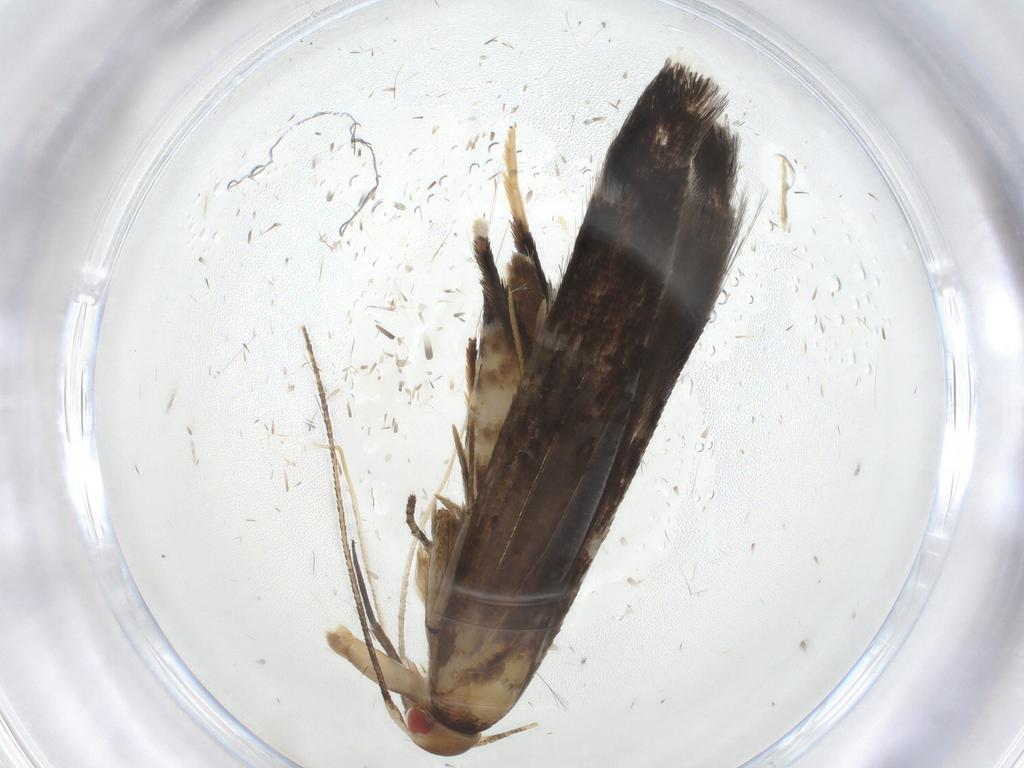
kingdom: Animalia
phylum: Arthropoda
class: Insecta
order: Lepidoptera
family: Cosmopterigidae
